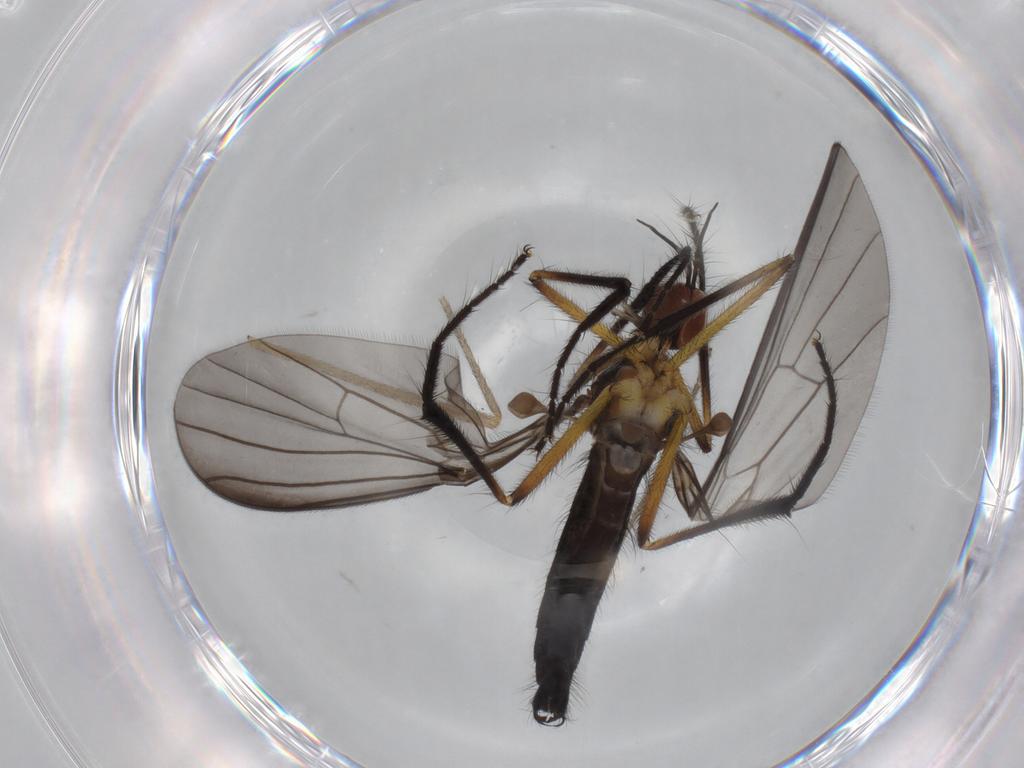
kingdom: Animalia
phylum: Arthropoda
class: Insecta
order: Diptera
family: Empididae
